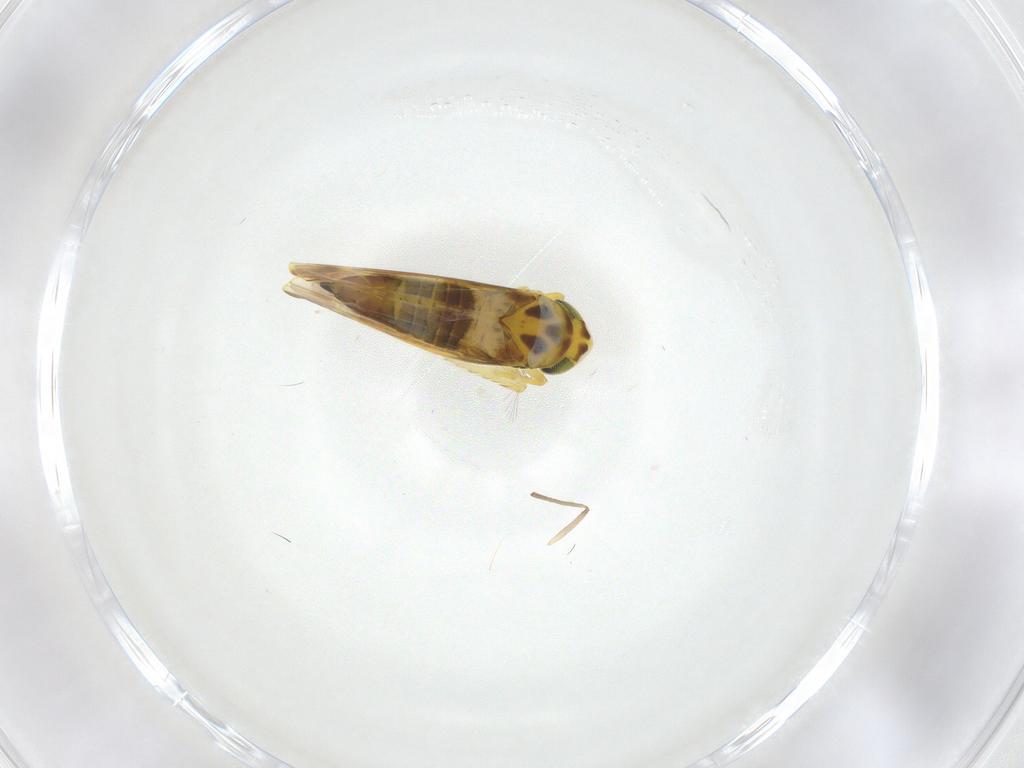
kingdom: Animalia
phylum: Arthropoda
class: Insecta
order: Hemiptera
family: Cicadellidae
